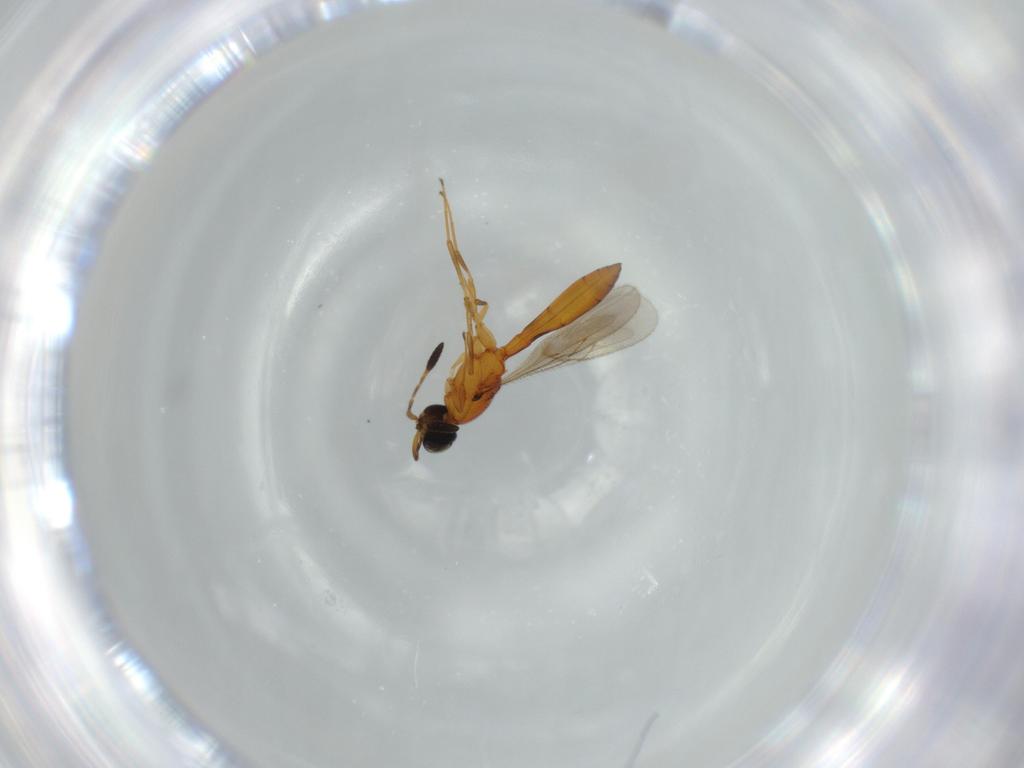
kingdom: Animalia
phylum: Arthropoda
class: Insecta
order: Hymenoptera
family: Scelionidae
